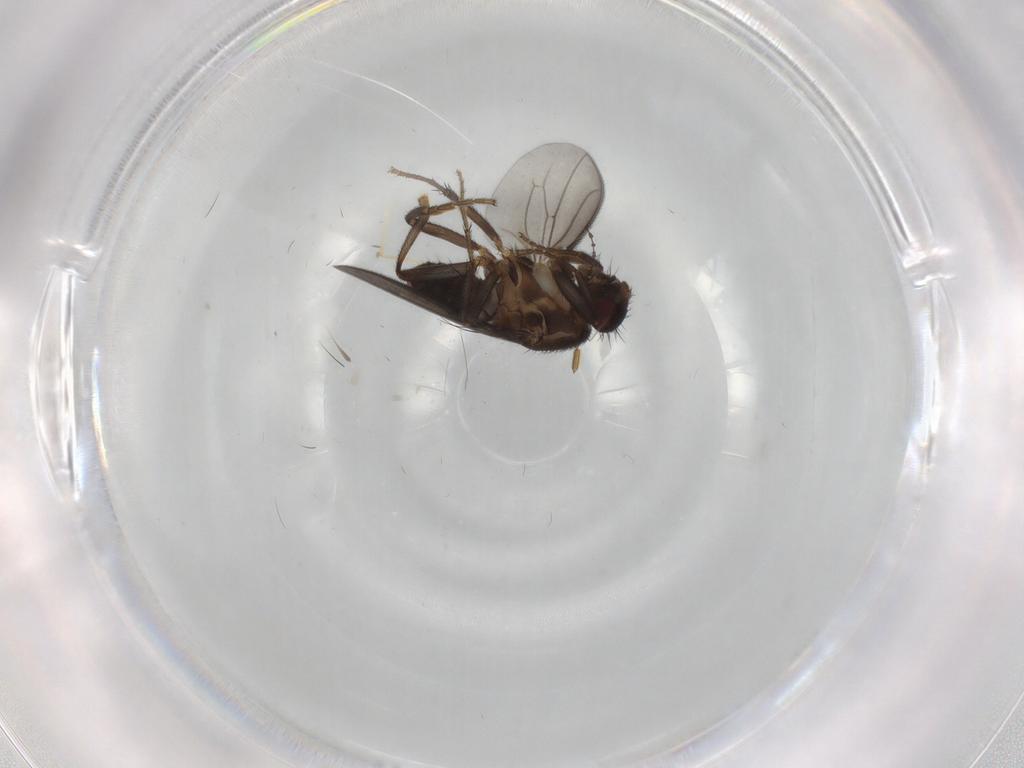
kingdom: Animalia
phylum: Arthropoda
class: Insecta
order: Diptera
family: Sphaeroceridae
